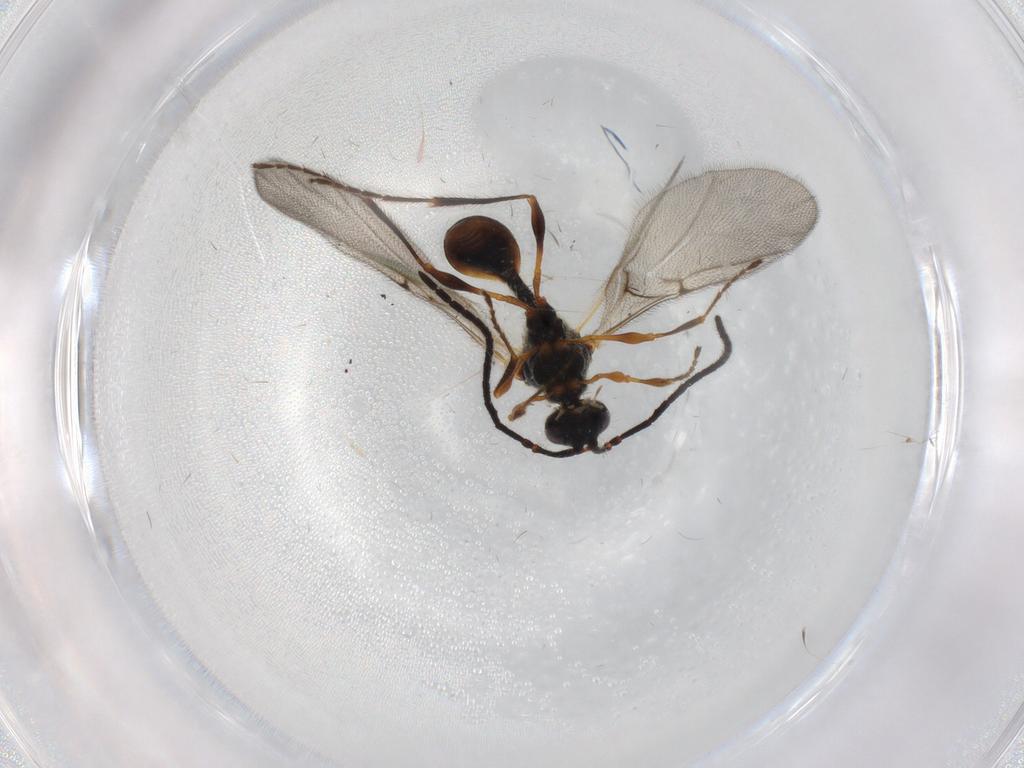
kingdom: Animalia
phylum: Arthropoda
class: Insecta
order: Hymenoptera
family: Diapriidae
